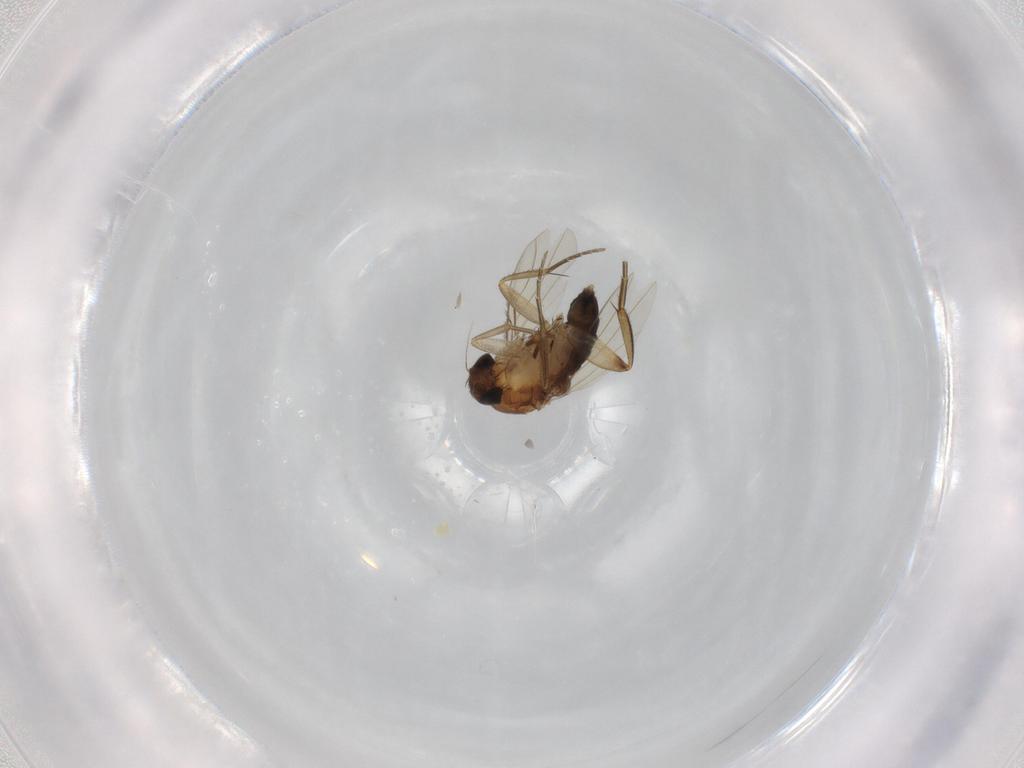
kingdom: Animalia
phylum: Arthropoda
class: Insecta
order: Diptera
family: Phoridae
